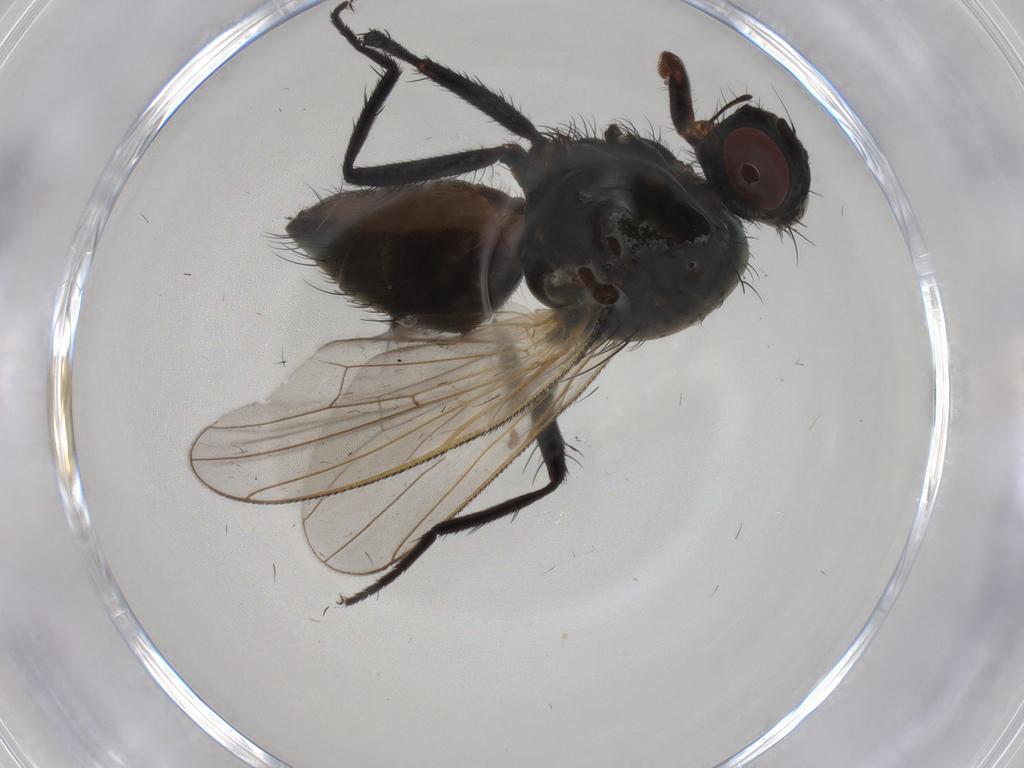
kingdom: Animalia
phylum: Arthropoda
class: Insecta
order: Diptera
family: Anthomyiidae
